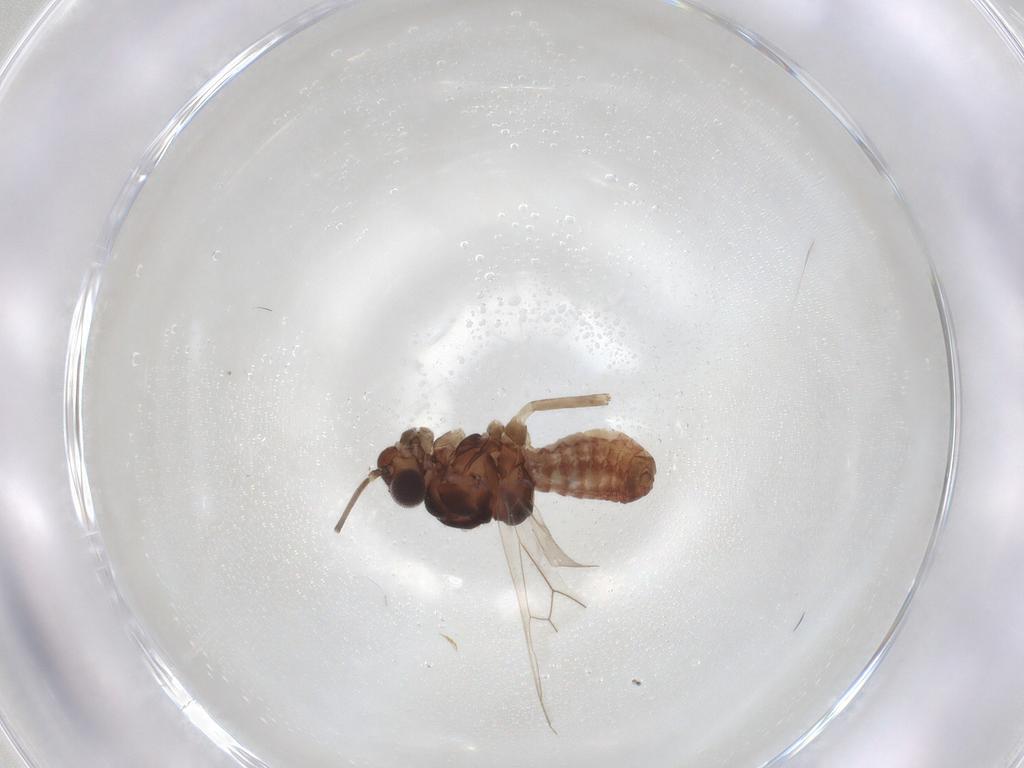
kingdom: Animalia
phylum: Arthropoda
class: Insecta
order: Psocodea
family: Caeciliusidae
